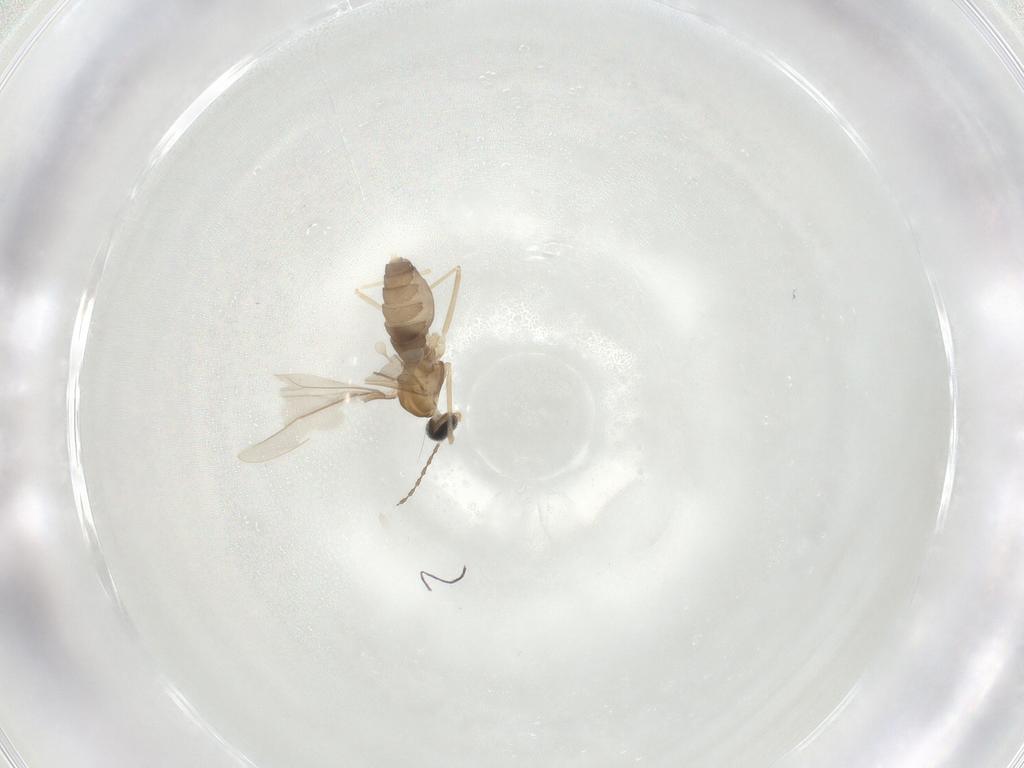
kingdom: Animalia
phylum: Arthropoda
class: Insecta
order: Diptera
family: Cecidomyiidae
